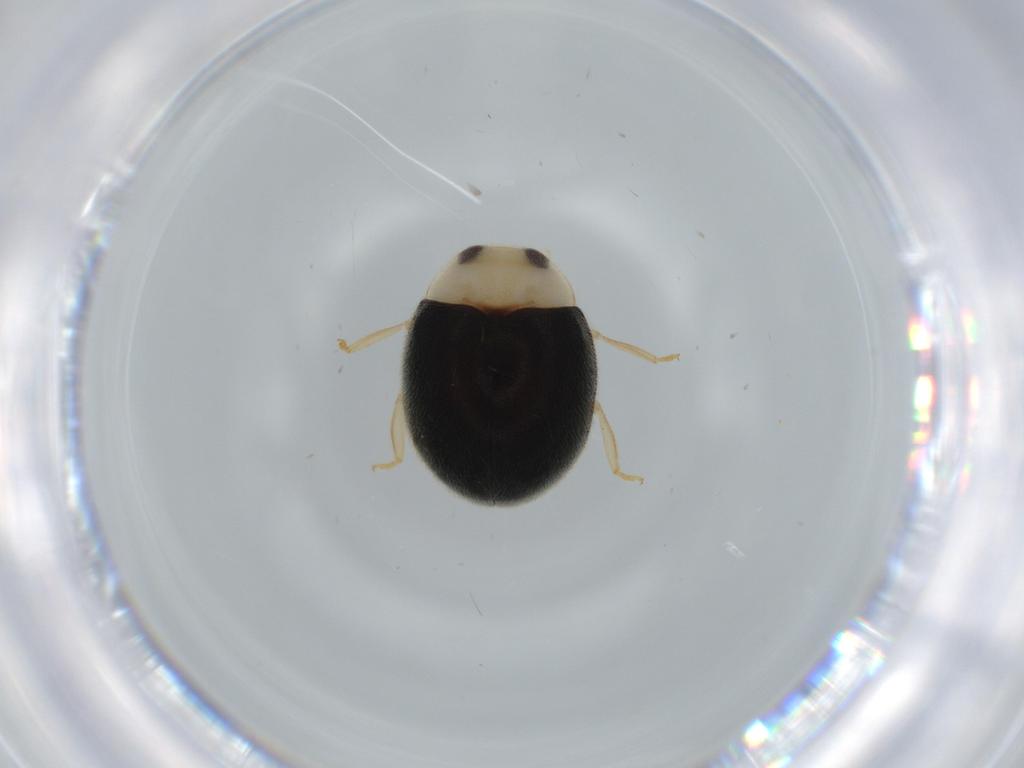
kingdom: Animalia
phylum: Arthropoda
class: Insecta
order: Coleoptera
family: Coccinellidae
